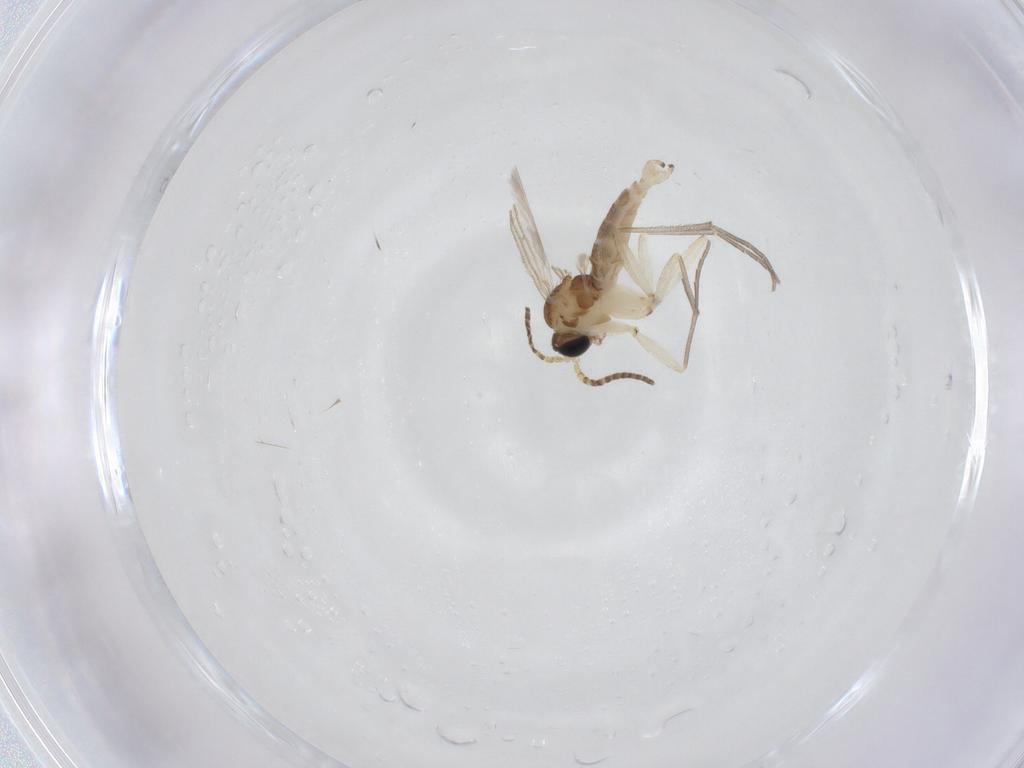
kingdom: Animalia
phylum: Arthropoda
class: Insecta
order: Diptera
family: Sciaridae
